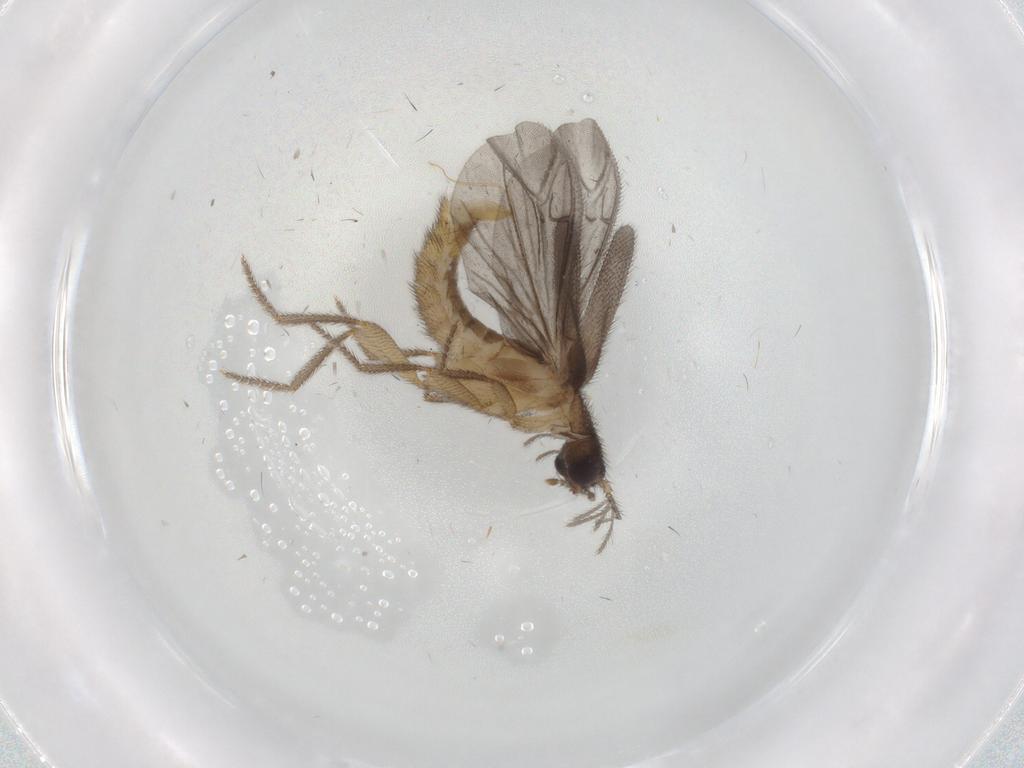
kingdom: Animalia
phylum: Arthropoda
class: Insecta
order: Coleoptera
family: Phengodidae
